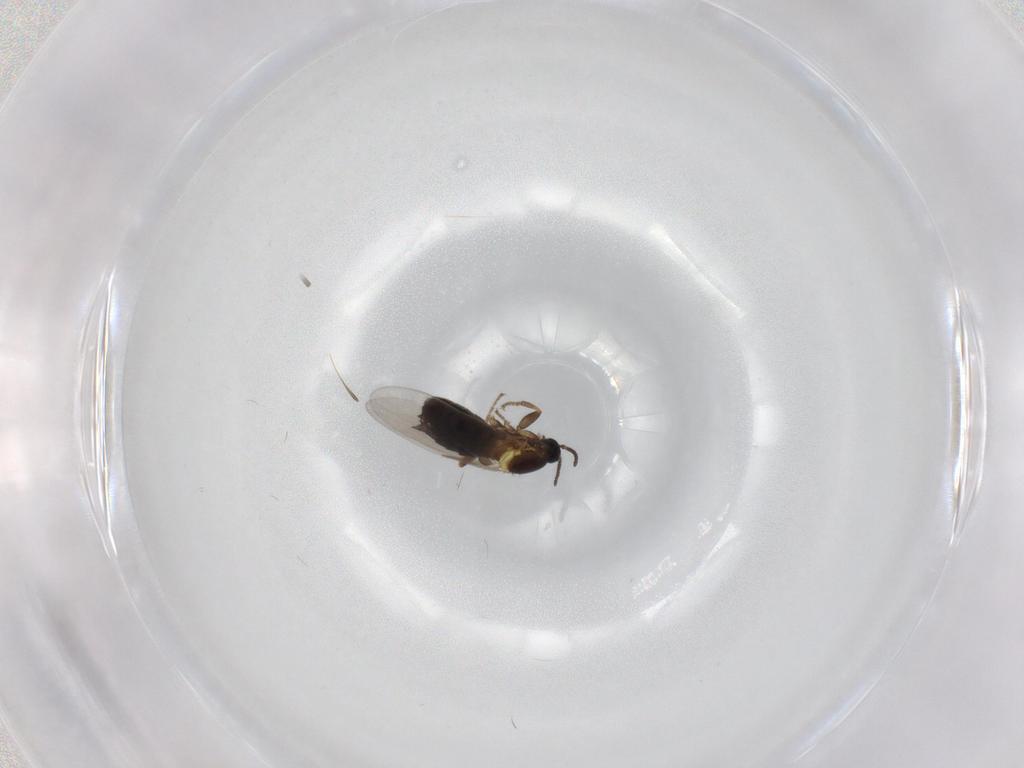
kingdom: Animalia
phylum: Arthropoda
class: Insecta
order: Diptera
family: Scatopsidae
